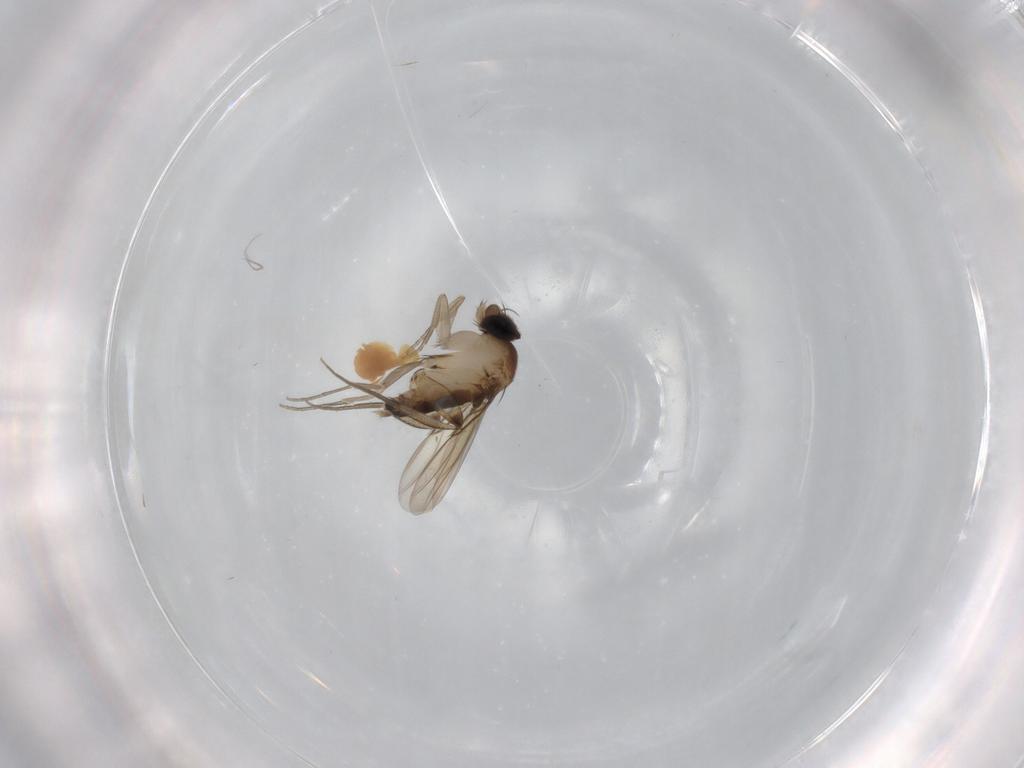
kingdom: Animalia
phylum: Arthropoda
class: Insecta
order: Diptera
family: Phoridae
